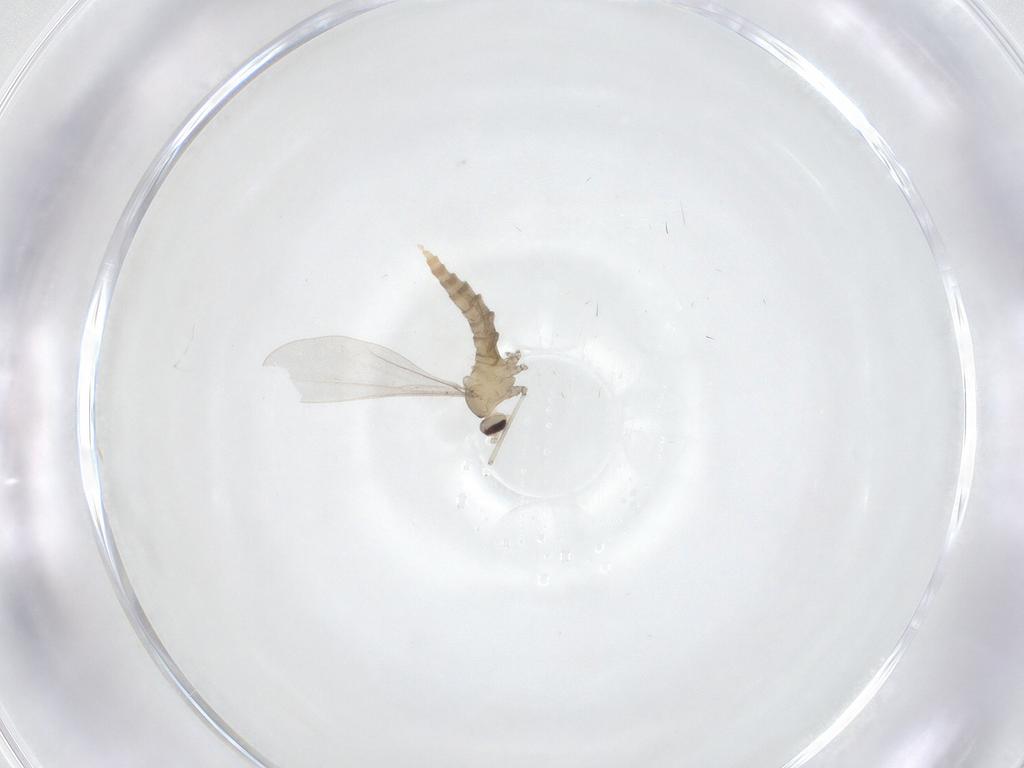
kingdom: Animalia
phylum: Arthropoda
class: Insecta
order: Diptera
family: Cecidomyiidae
